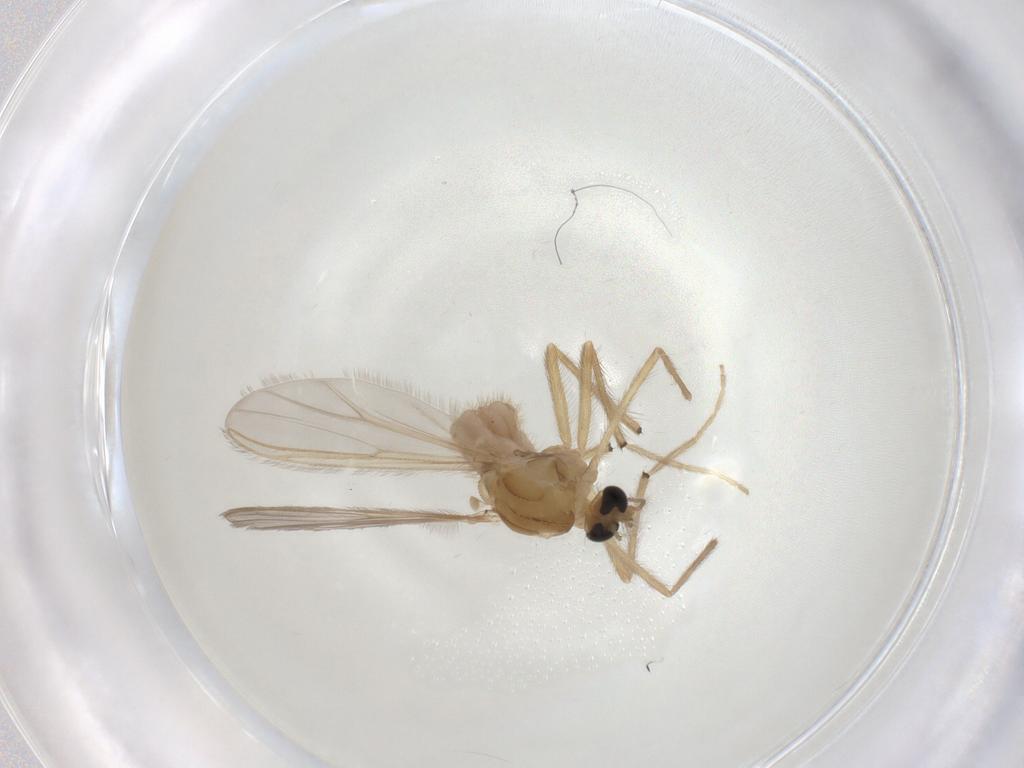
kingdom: Animalia
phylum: Arthropoda
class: Insecta
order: Diptera
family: Chironomidae
